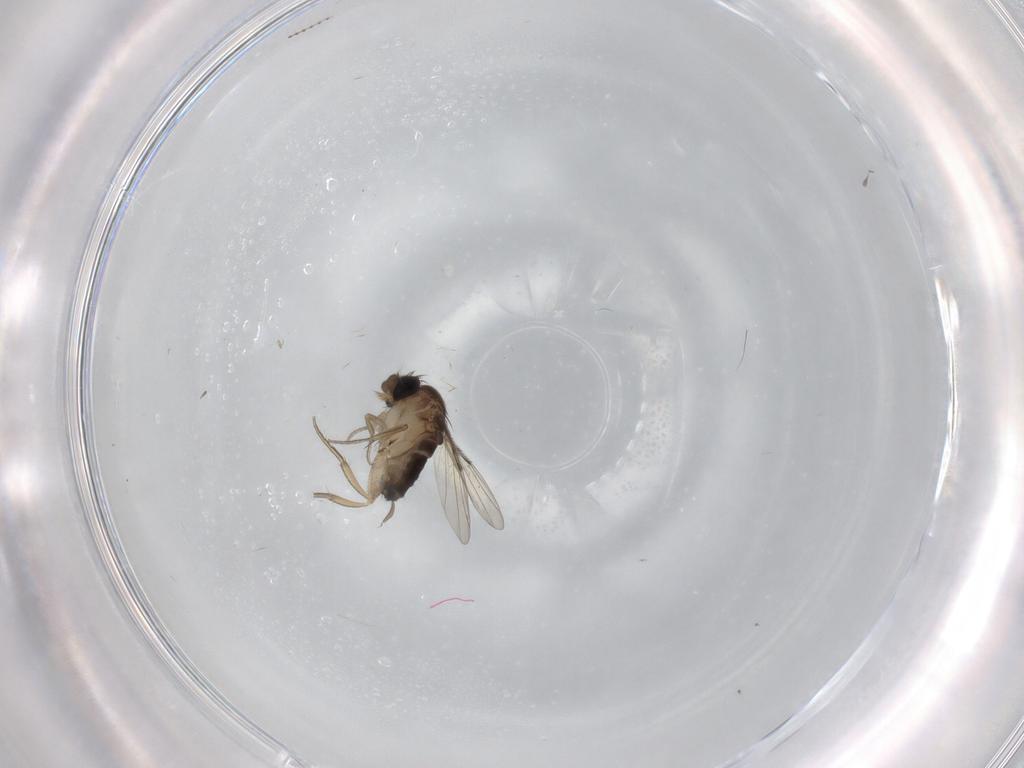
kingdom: Animalia
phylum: Arthropoda
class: Insecta
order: Diptera
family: Cecidomyiidae
